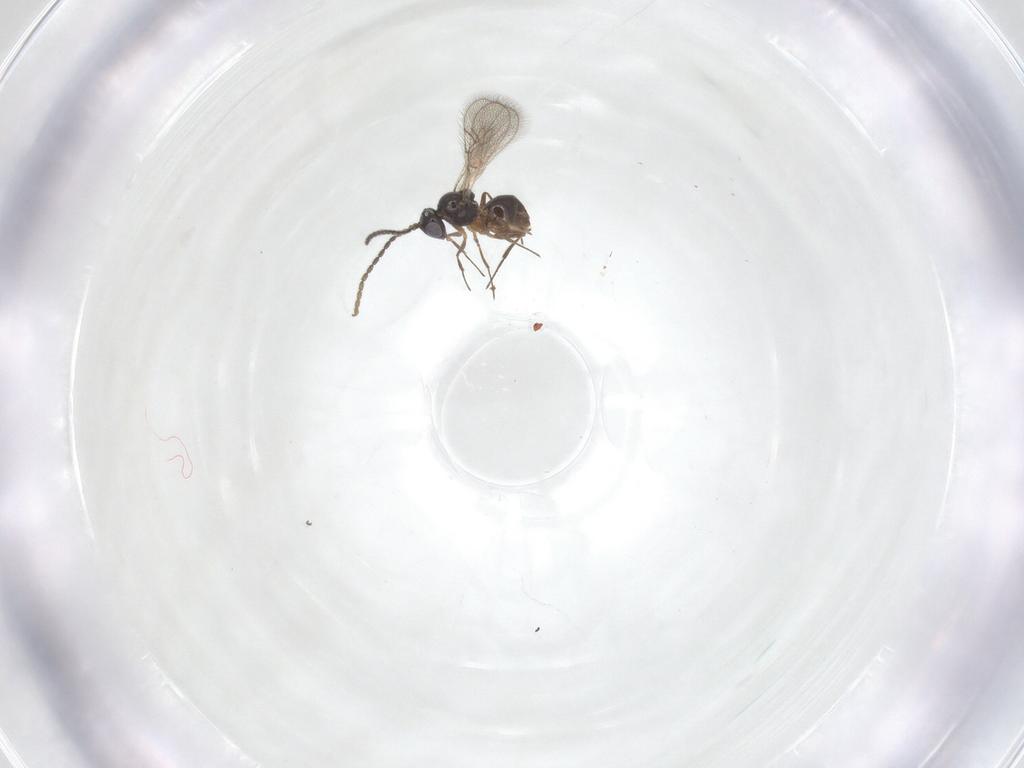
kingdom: Animalia
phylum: Arthropoda
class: Insecta
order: Hymenoptera
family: Figitidae
